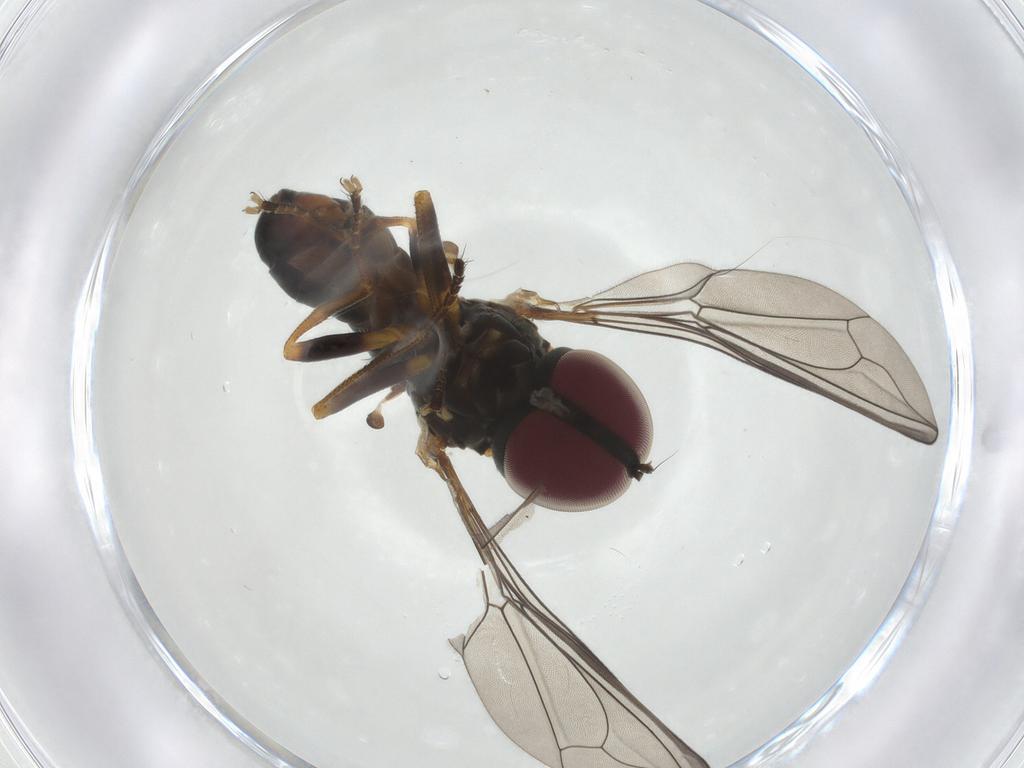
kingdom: Animalia
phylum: Arthropoda
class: Insecta
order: Diptera
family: Pipunculidae
